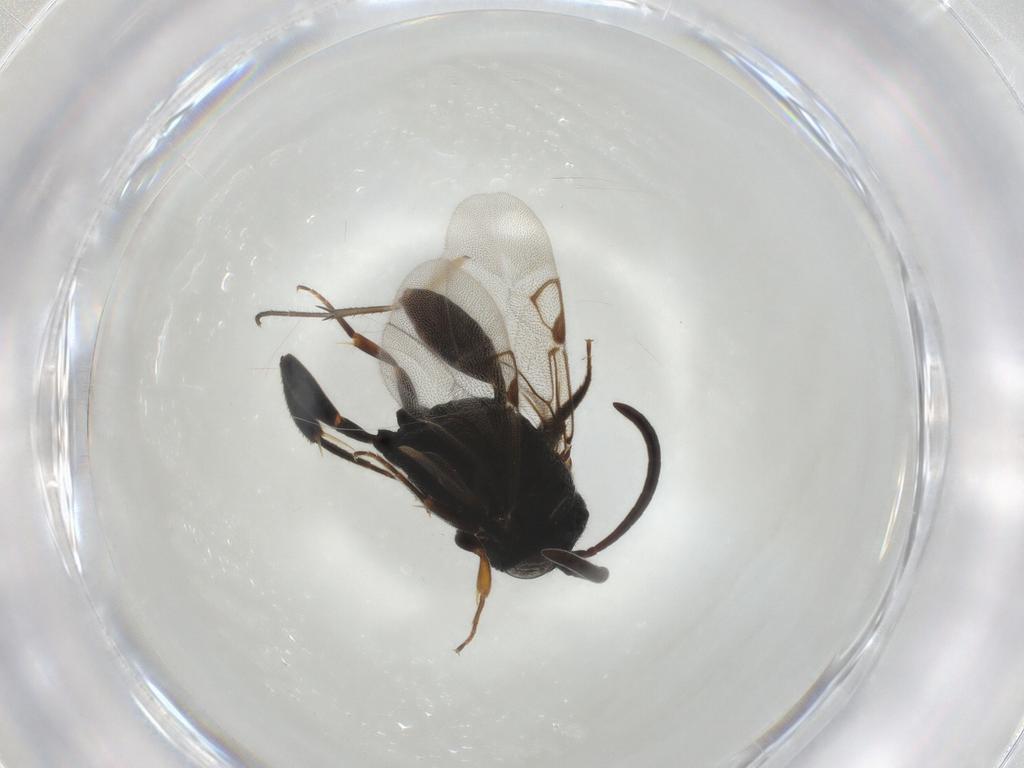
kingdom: Animalia
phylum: Arthropoda
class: Insecta
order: Hymenoptera
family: Evaniidae
